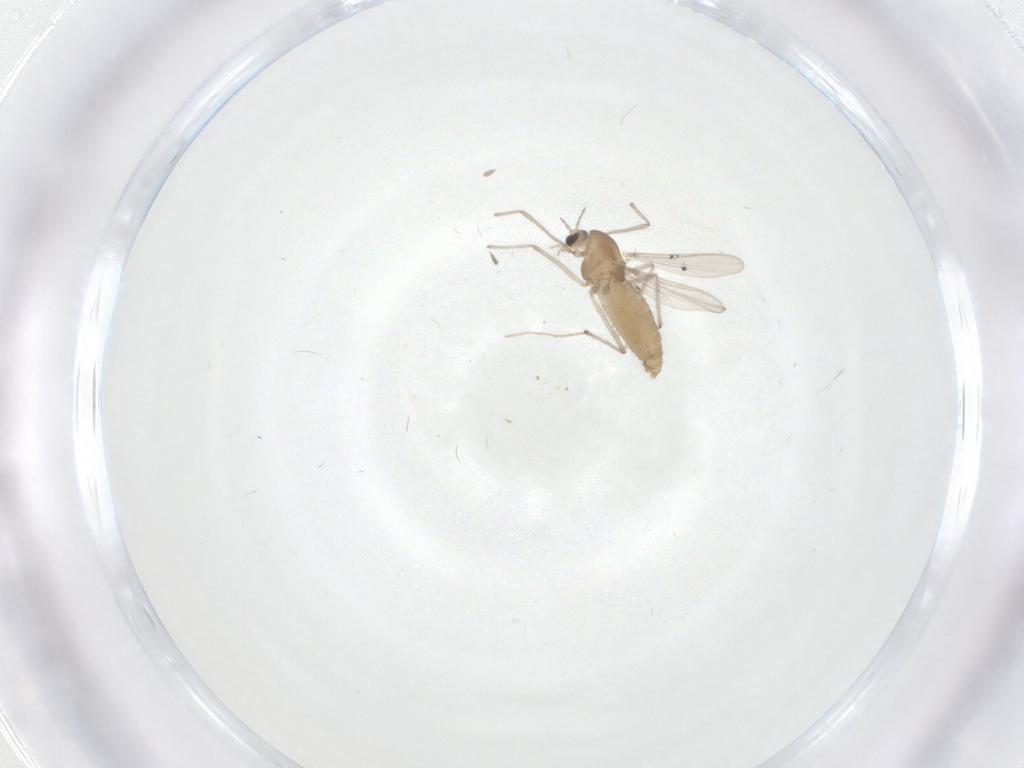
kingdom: Animalia
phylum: Arthropoda
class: Insecta
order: Diptera
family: Chironomidae
